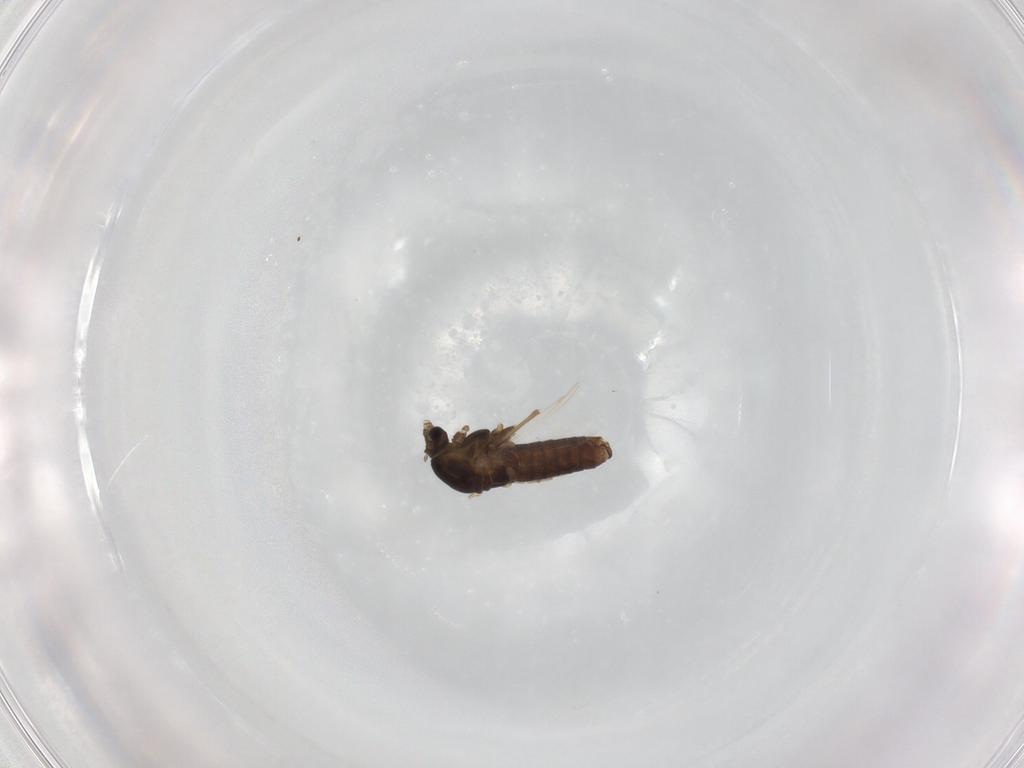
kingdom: Animalia
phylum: Arthropoda
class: Insecta
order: Diptera
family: Chironomidae
